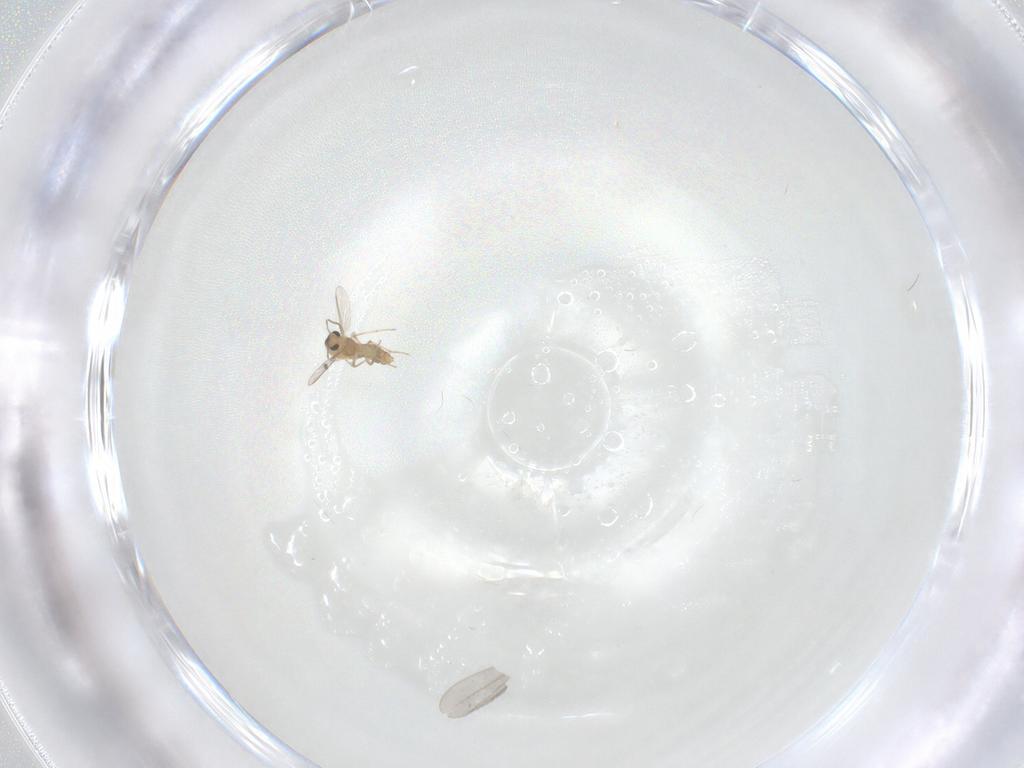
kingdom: Animalia
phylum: Arthropoda
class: Insecta
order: Diptera
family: Chironomidae
